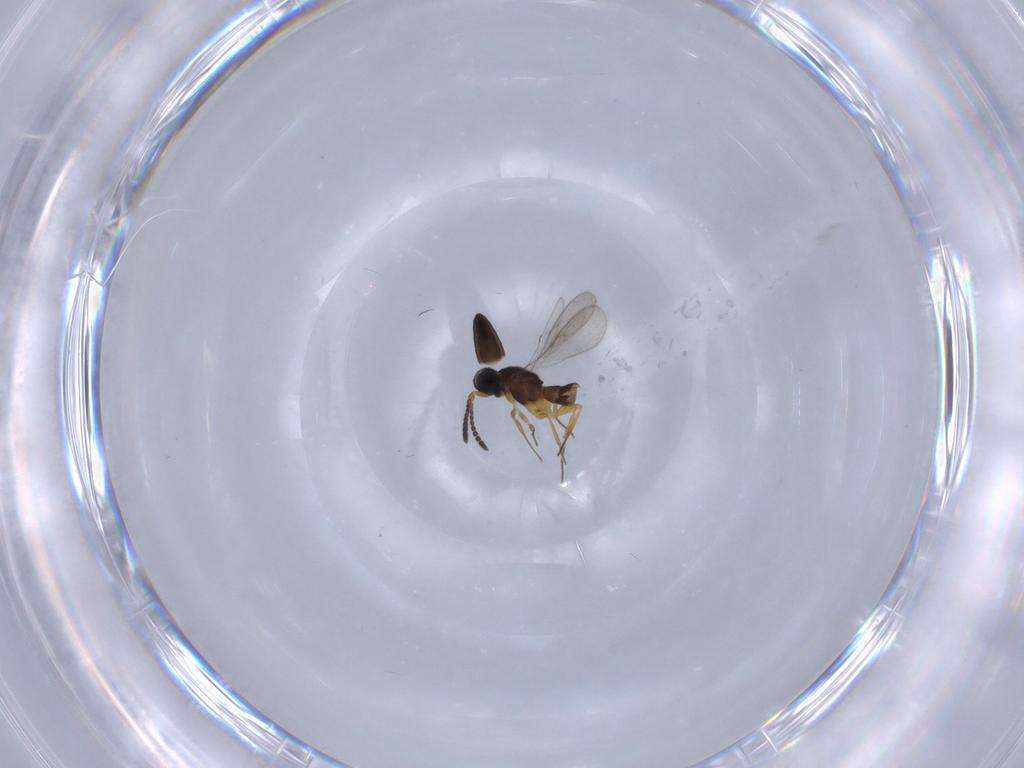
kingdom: Animalia
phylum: Arthropoda
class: Insecta
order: Hymenoptera
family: Scelionidae
